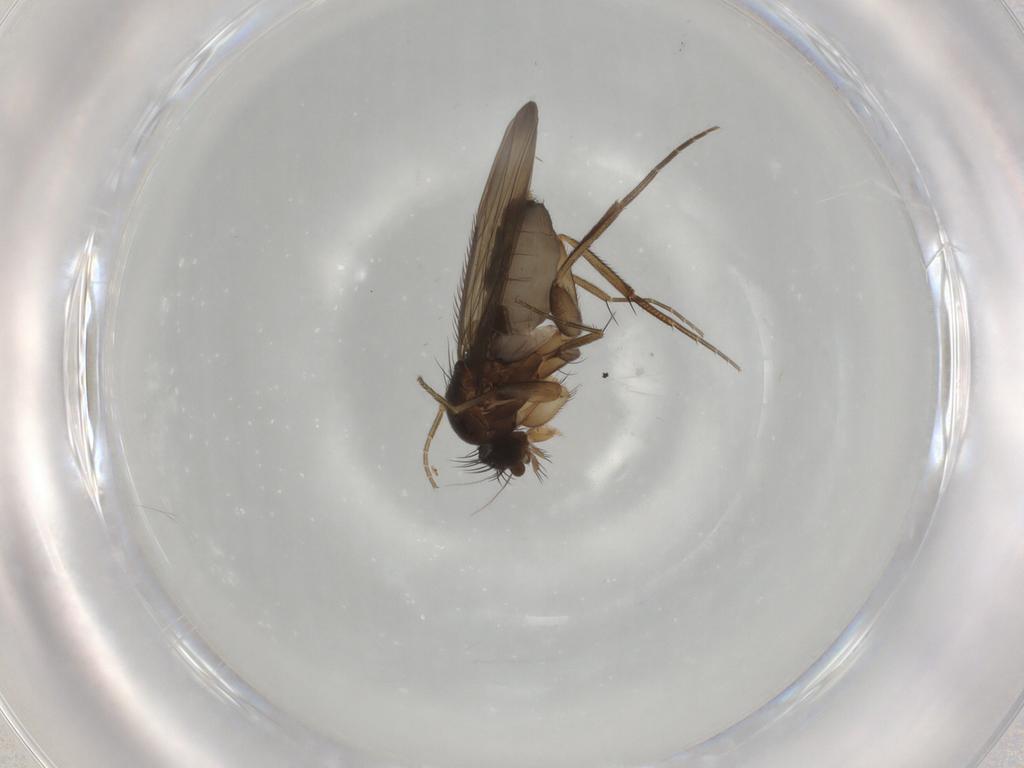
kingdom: Animalia
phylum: Arthropoda
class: Insecta
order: Diptera
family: Phoridae
